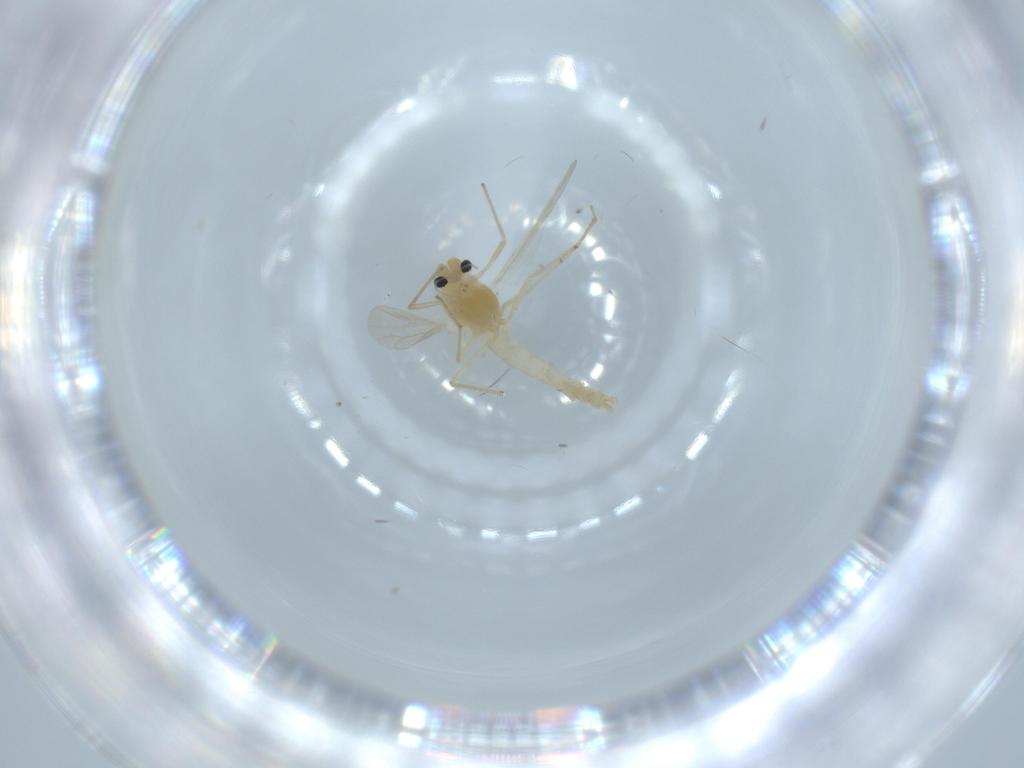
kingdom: Animalia
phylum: Arthropoda
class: Insecta
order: Diptera
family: Chironomidae
